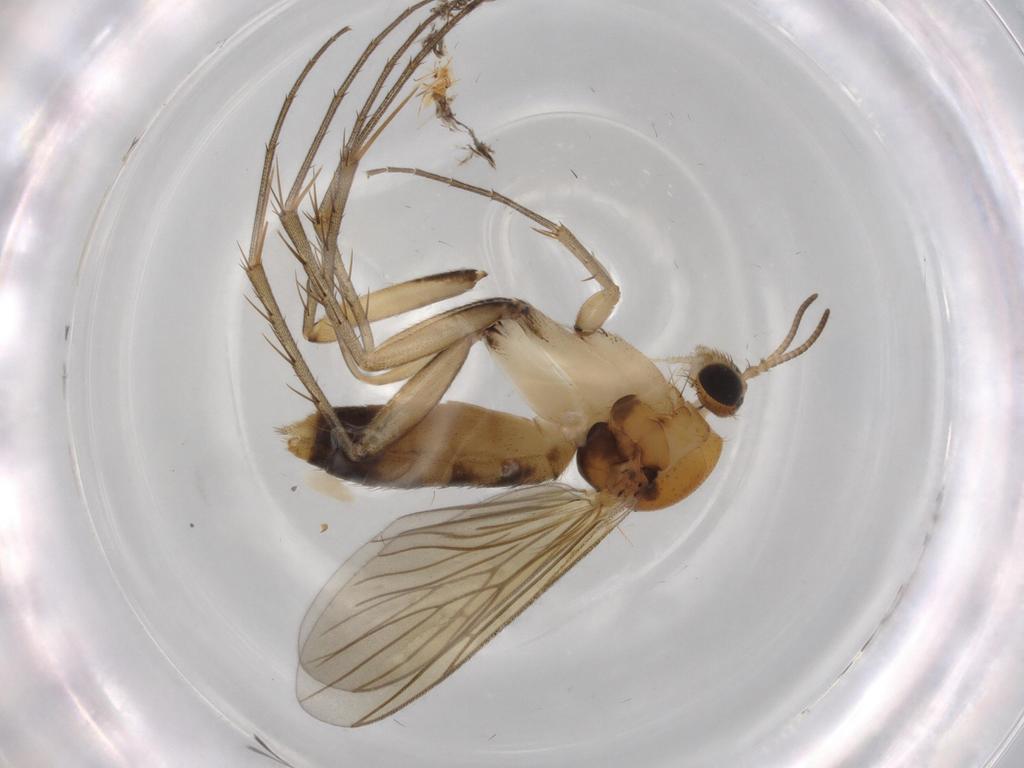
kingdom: Animalia
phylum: Arthropoda
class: Insecta
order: Diptera
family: Mycetophilidae
